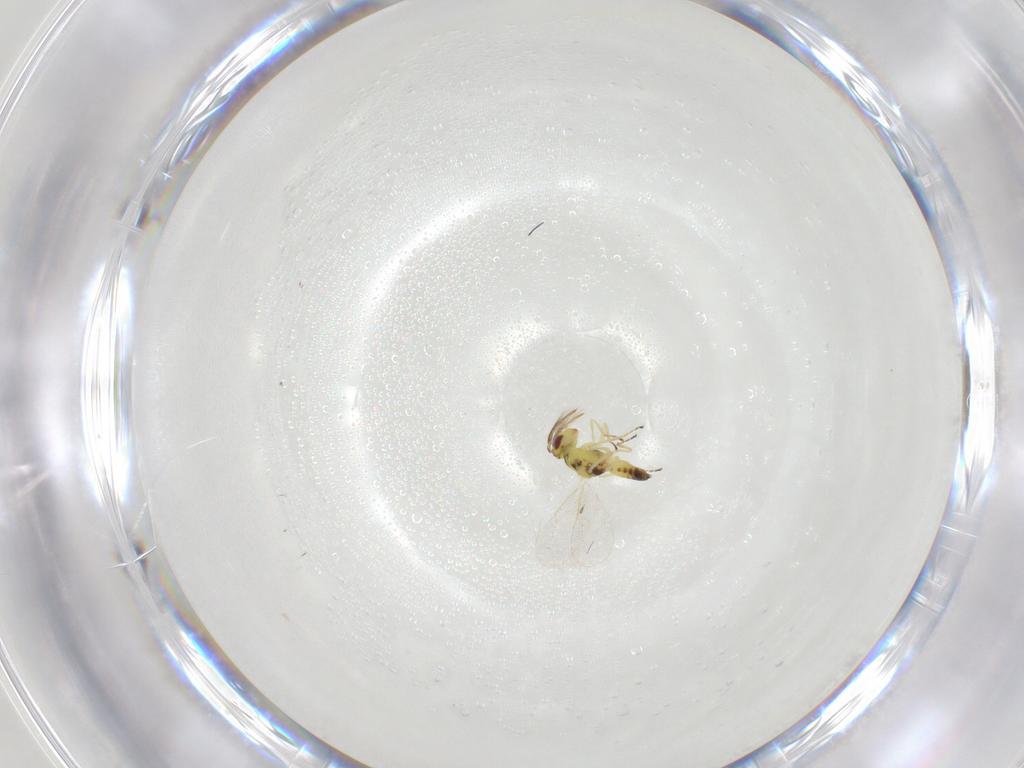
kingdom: Animalia
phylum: Arthropoda
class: Insecta
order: Hymenoptera
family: Eulophidae
